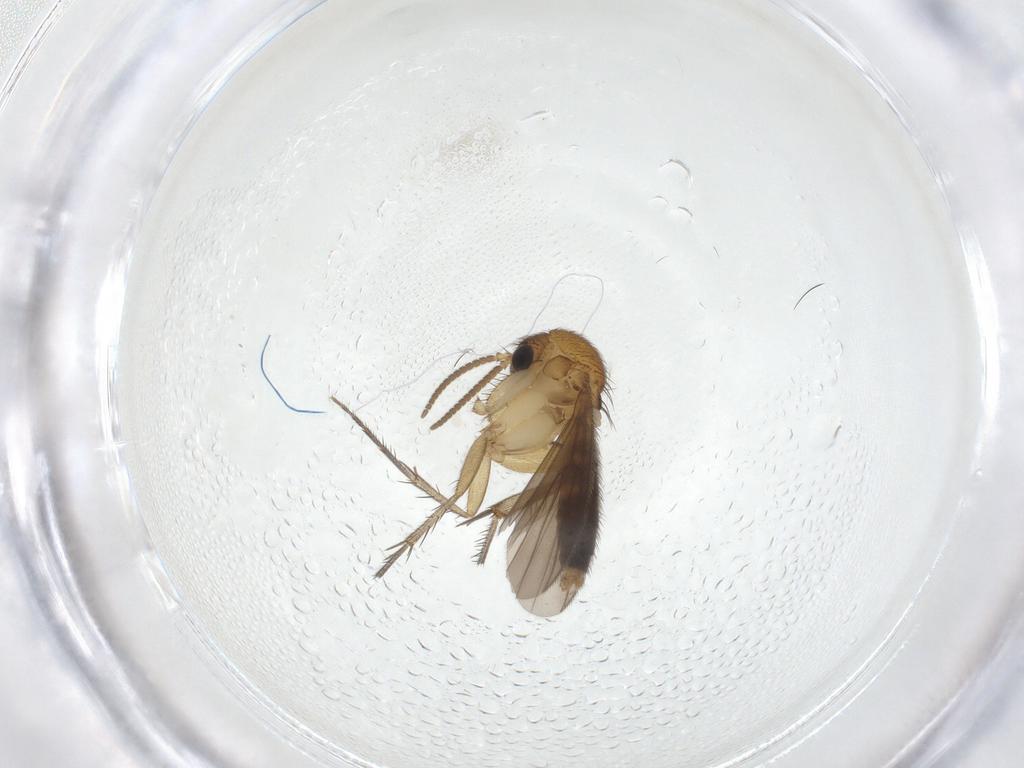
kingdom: Animalia
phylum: Arthropoda
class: Insecta
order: Diptera
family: Mycetophilidae
